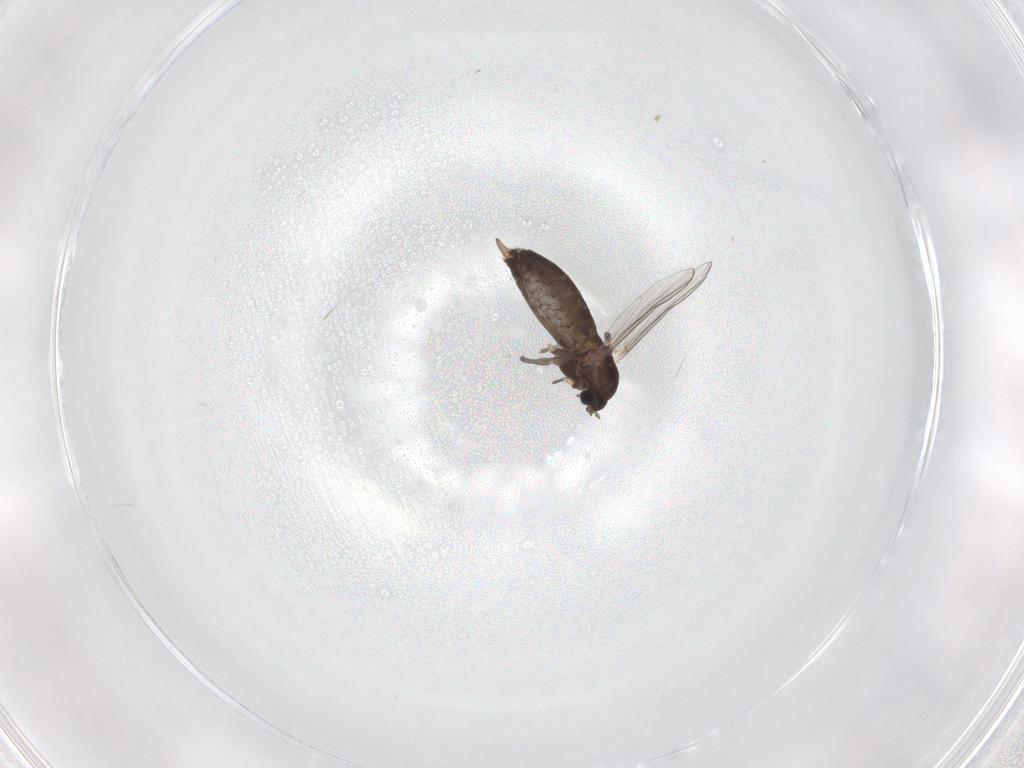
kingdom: Animalia
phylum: Arthropoda
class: Insecta
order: Diptera
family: Chironomidae
